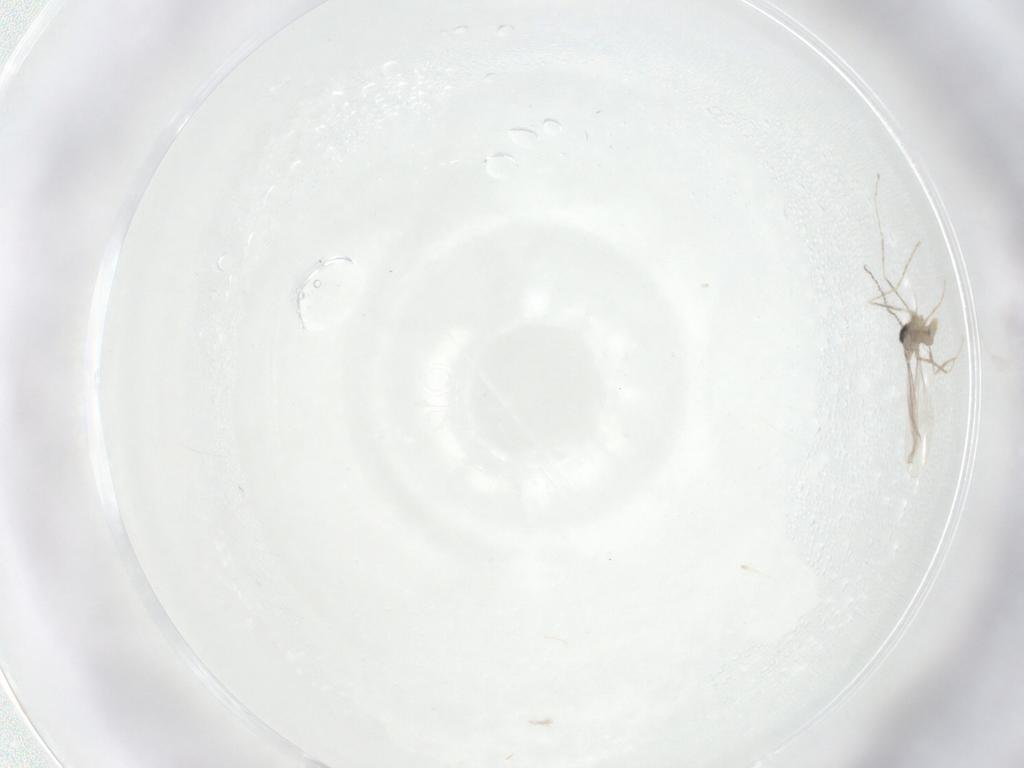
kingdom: Animalia
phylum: Arthropoda
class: Insecta
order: Diptera
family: Cecidomyiidae
